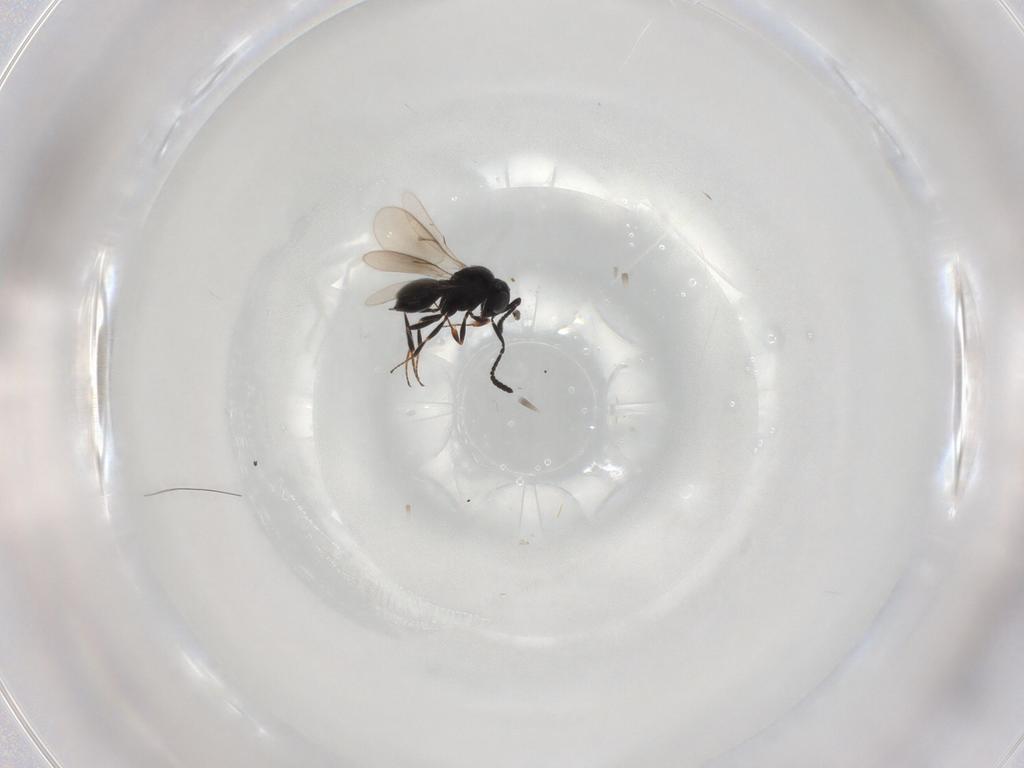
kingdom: Animalia
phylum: Arthropoda
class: Insecta
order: Hymenoptera
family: Scelionidae
